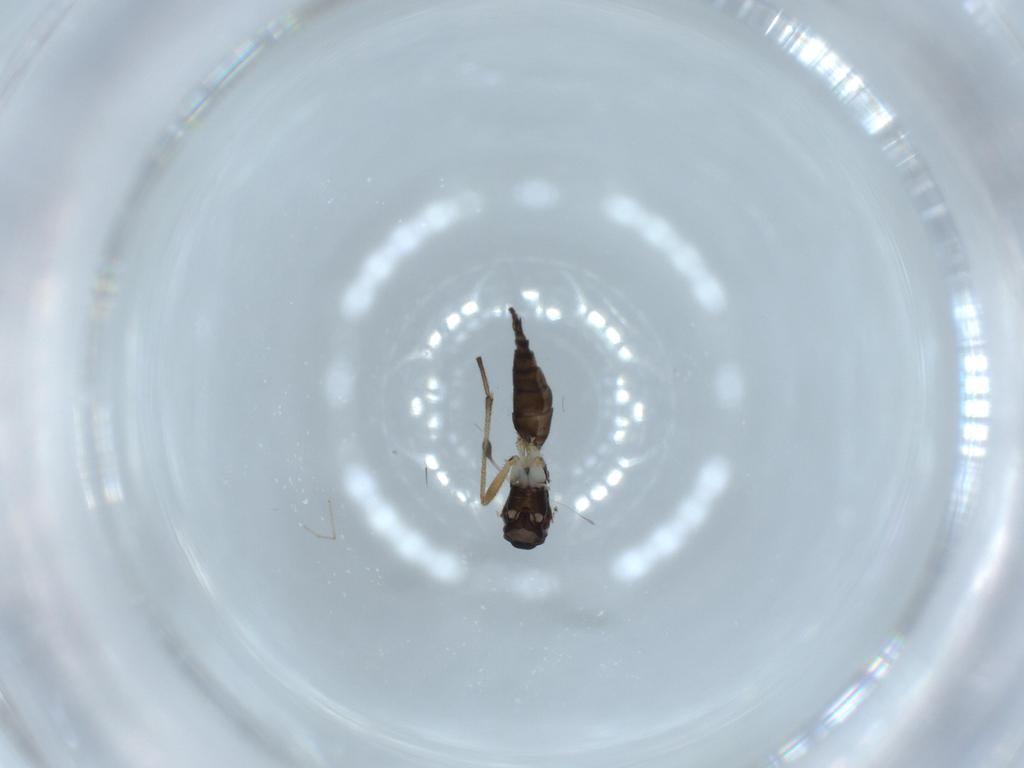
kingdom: Animalia
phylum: Arthropoda
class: Insecta
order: Diptera
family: Sciaridae
